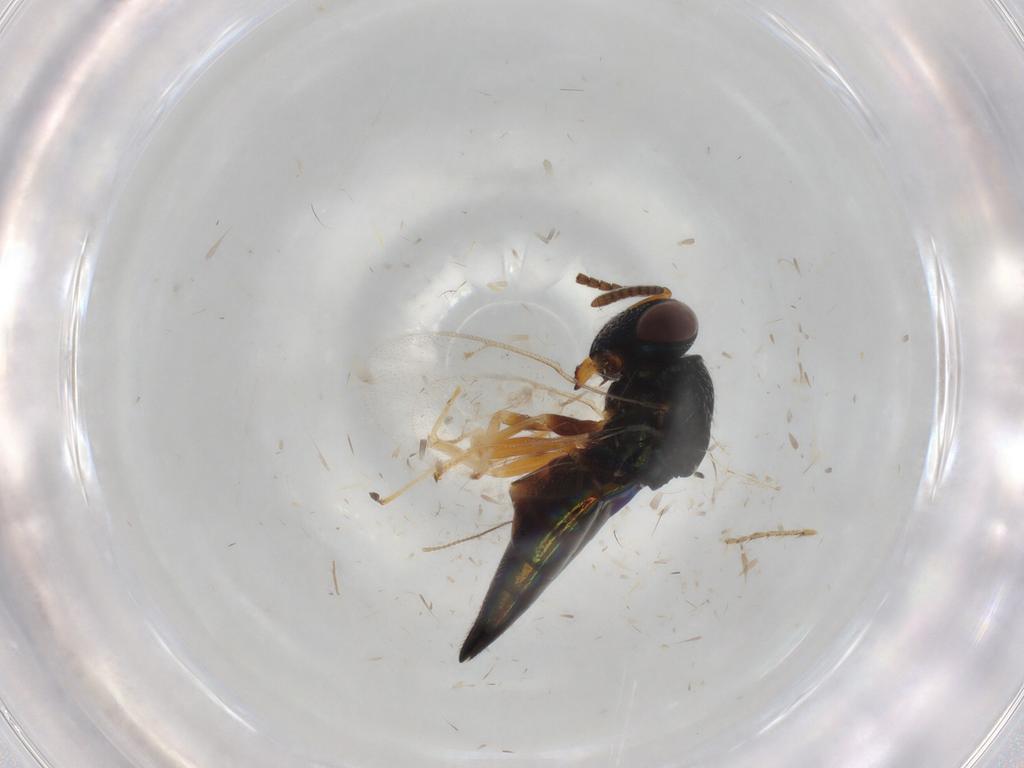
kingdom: Animalia
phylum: Arthropoda
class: Insecta
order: Hymenoptera
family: Pteromalidae
